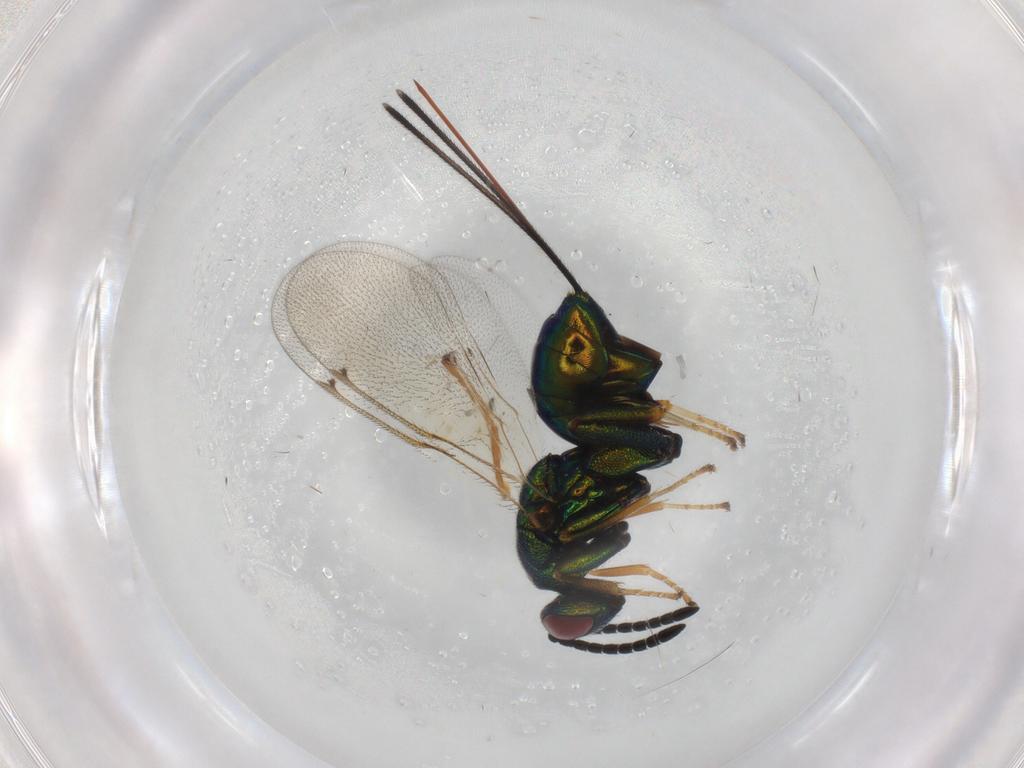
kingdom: Animalia
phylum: Arthropoda
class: Insecta
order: Hymenoptera
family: Torymidae
